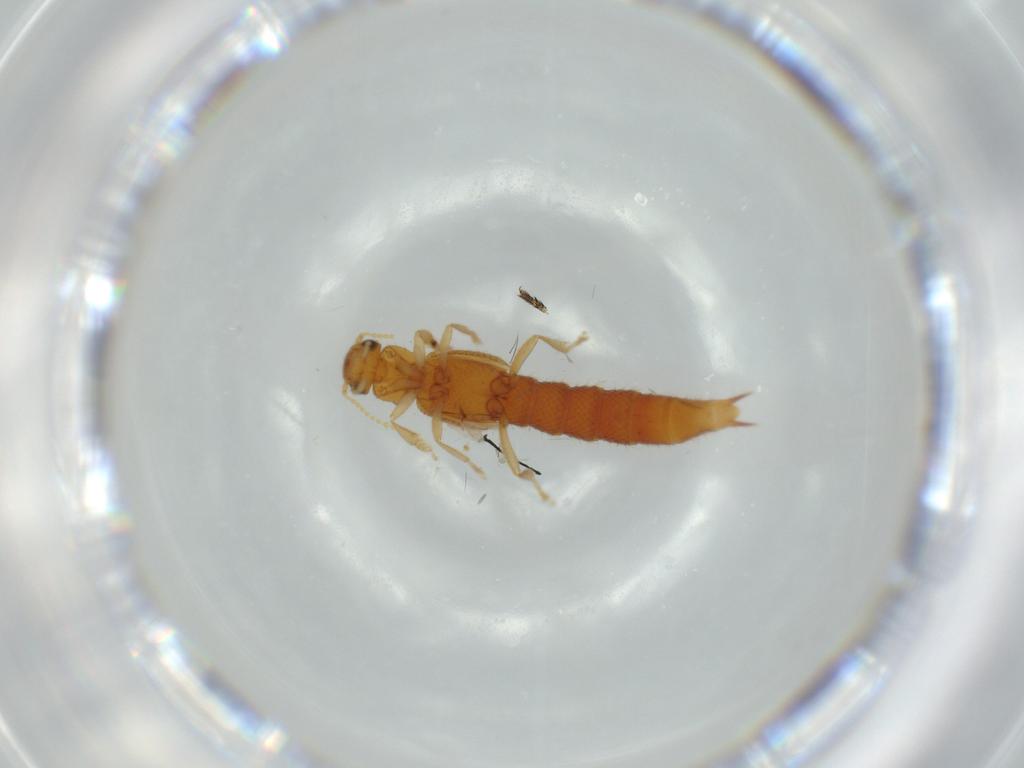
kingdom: Animalia
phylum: Arthropoda
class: Insecta
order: Coleoptera
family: Staphylinidae
